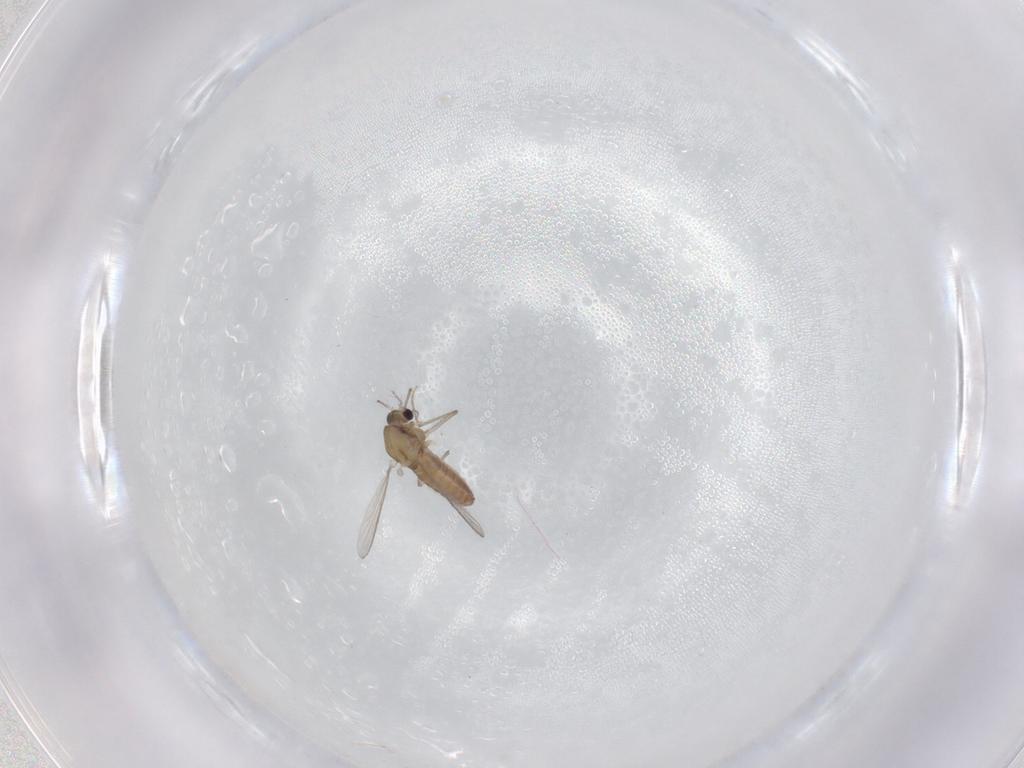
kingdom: Animalia
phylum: Arthropoda
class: Insecta
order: Diptera
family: Chironomidae
